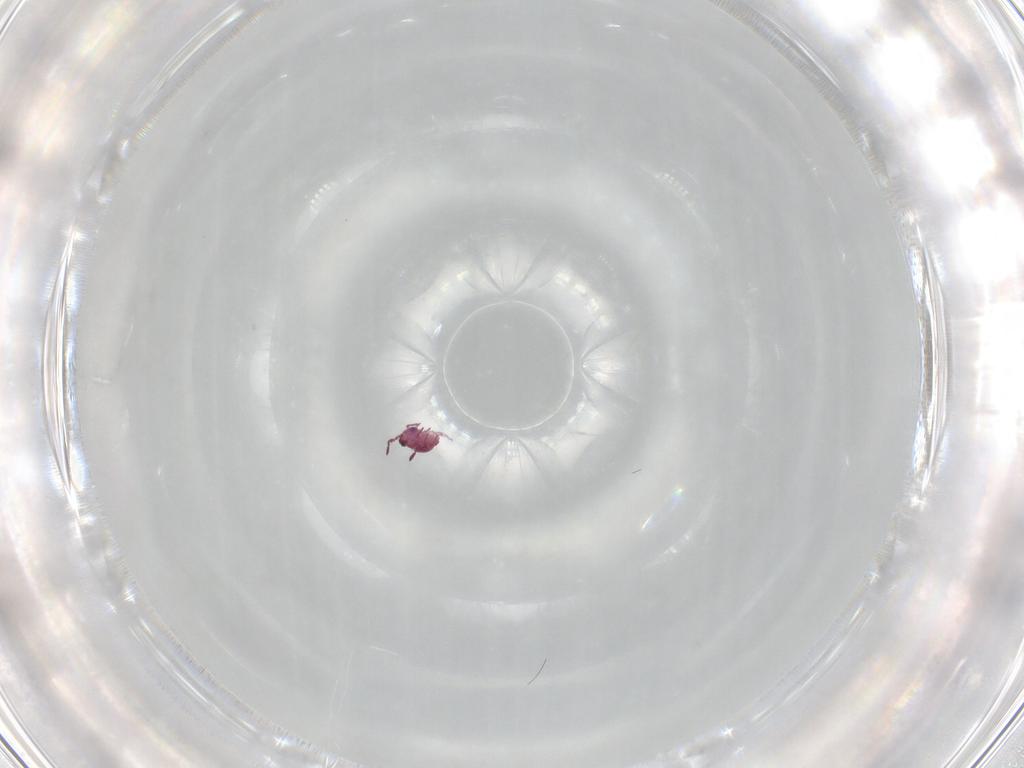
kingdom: Animalia
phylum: Arthropoda
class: Collembola
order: Symphypleona
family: Sminthurididae
